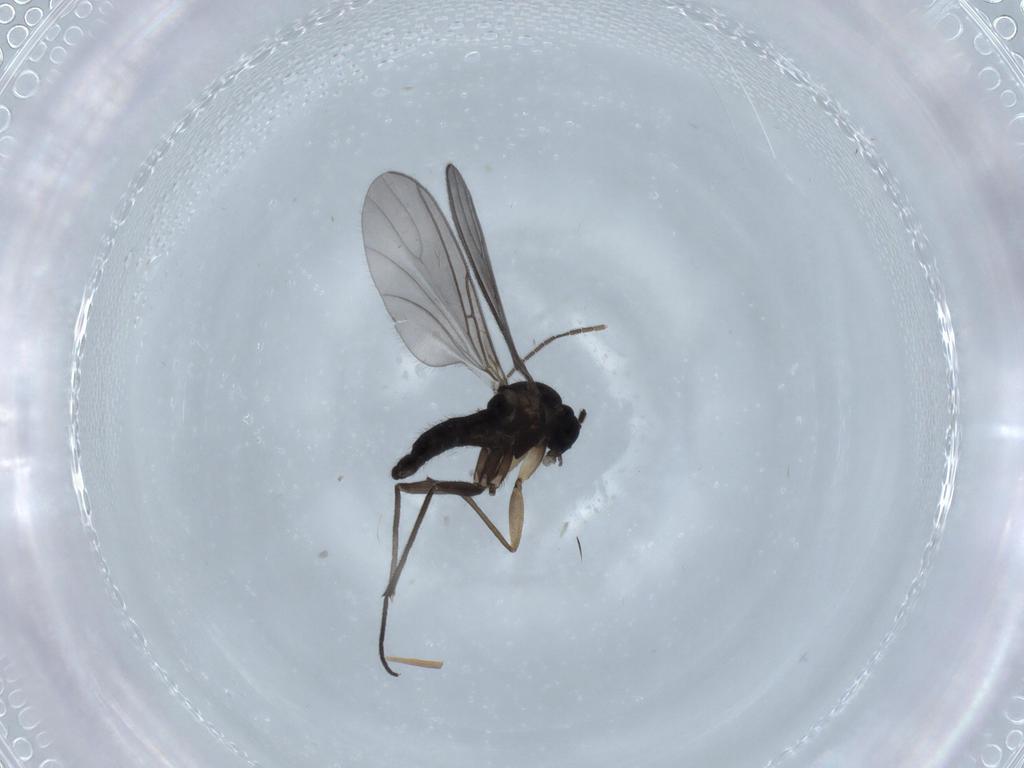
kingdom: Animalia
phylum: Arthropoda
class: Insecta
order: Diptera
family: Sciaridae
